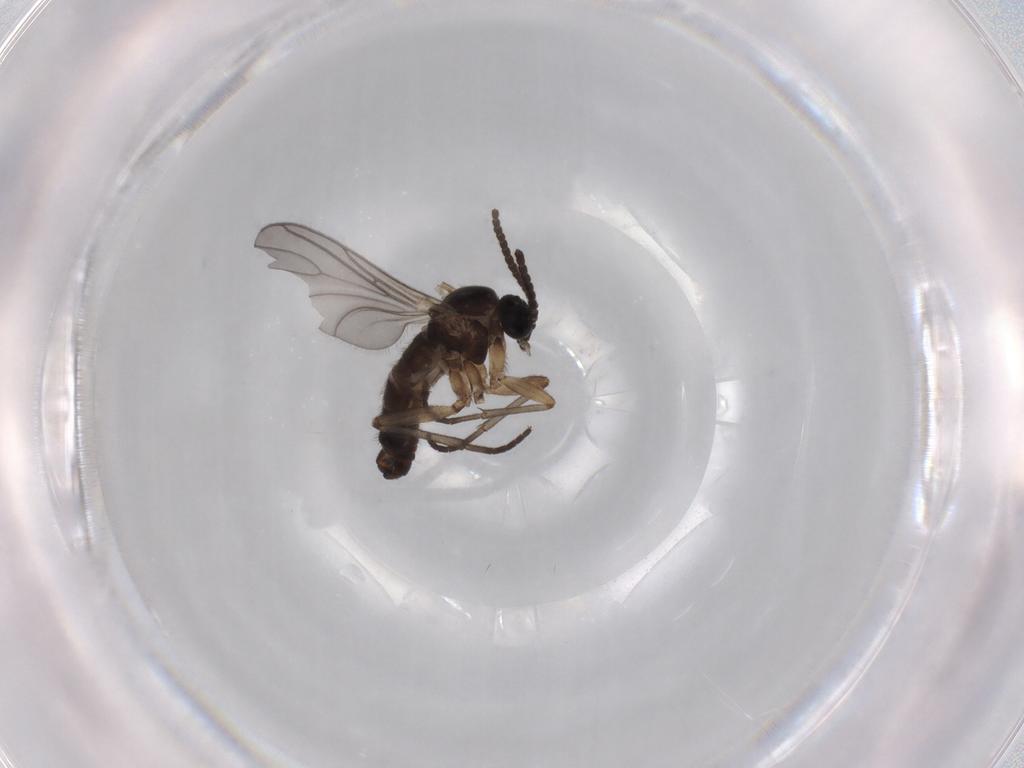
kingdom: Animalia
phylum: Arthropoda
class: Insecta
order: Diptera
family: Sciaridae
